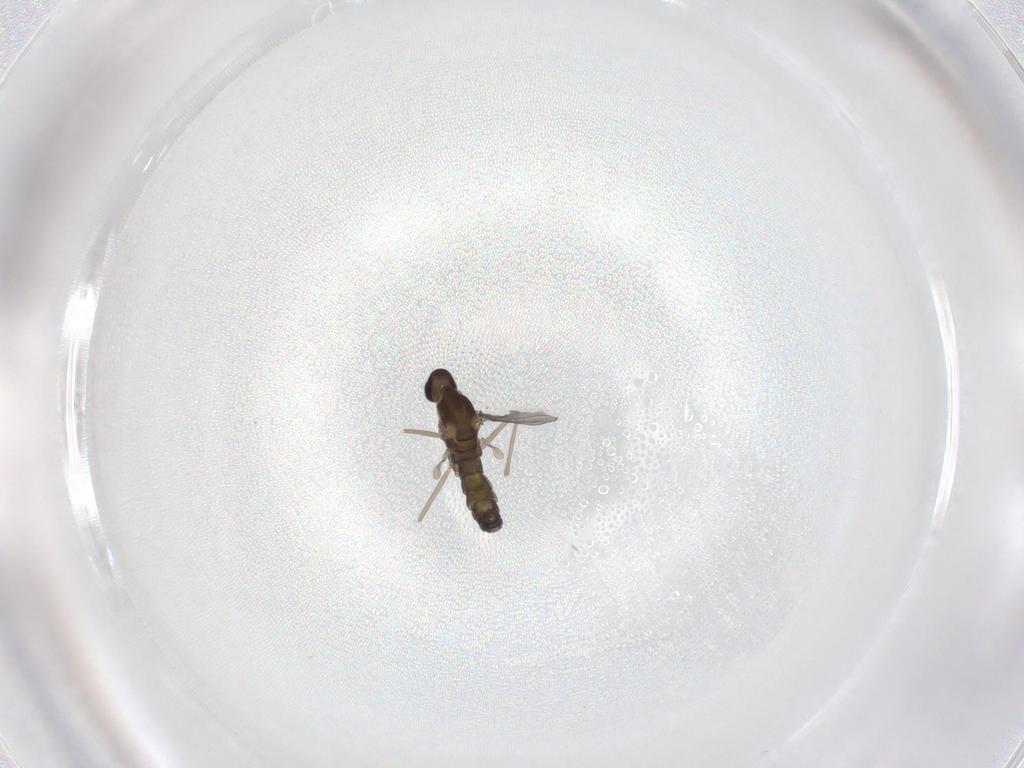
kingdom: Animalia
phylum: Arthropoda
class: Insecta
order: Diptera
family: Cecidomyiidae
